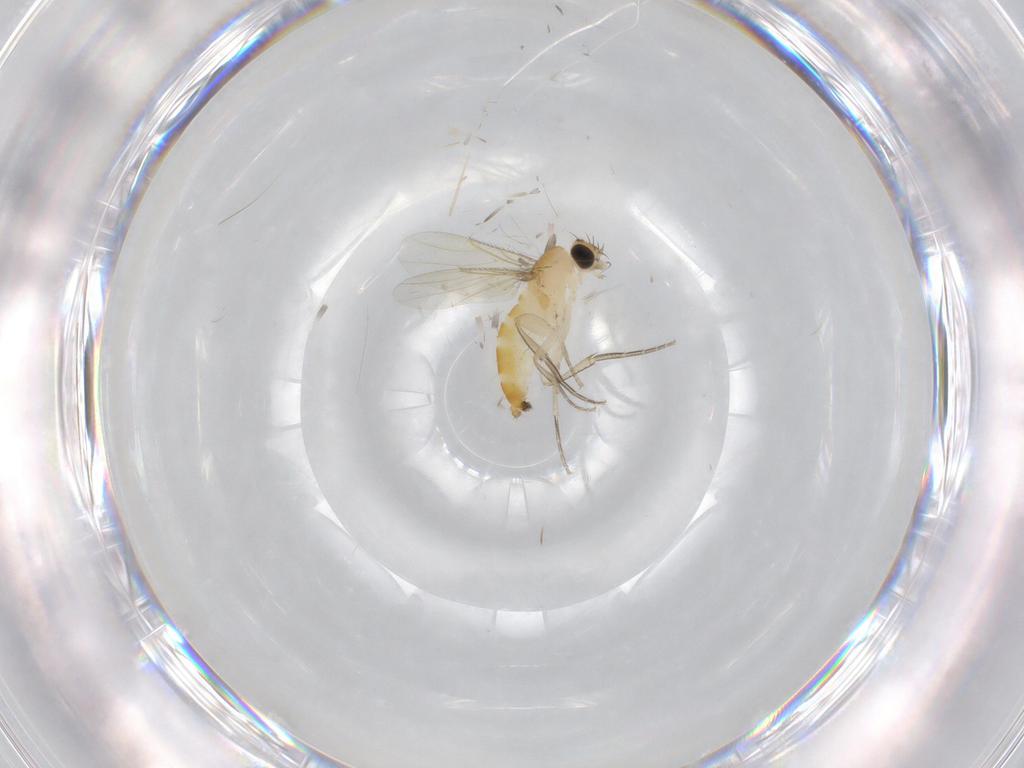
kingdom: Animalia
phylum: Arthropoda
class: Insecta
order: Diptera
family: Phoridae
